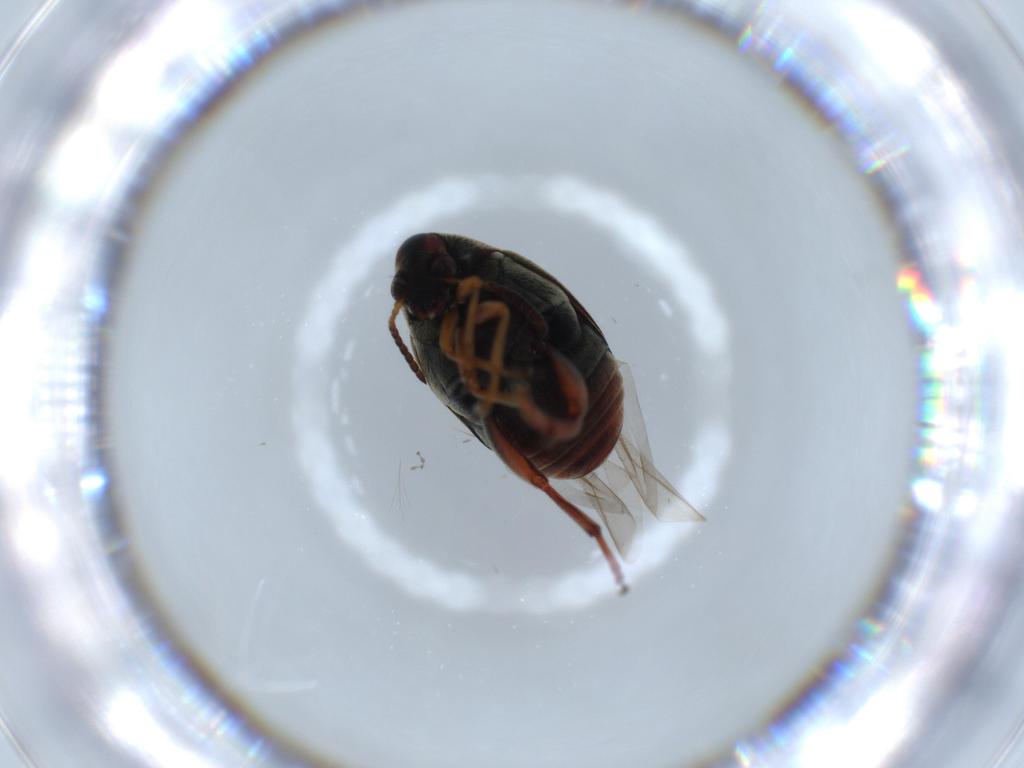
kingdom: Animalia
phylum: Arthropoda
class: Insecta
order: Coleoptera
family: Chrysomelidae
